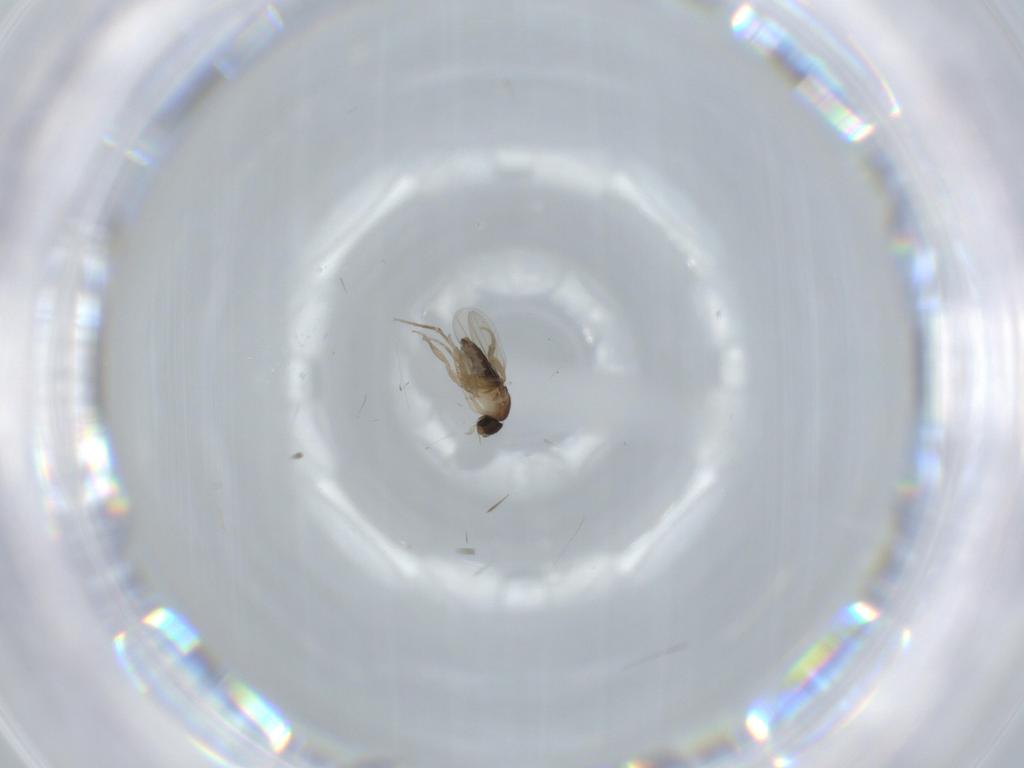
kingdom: Animalia
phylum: Arthropoda
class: Insecta
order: Diptera
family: Phoridae
